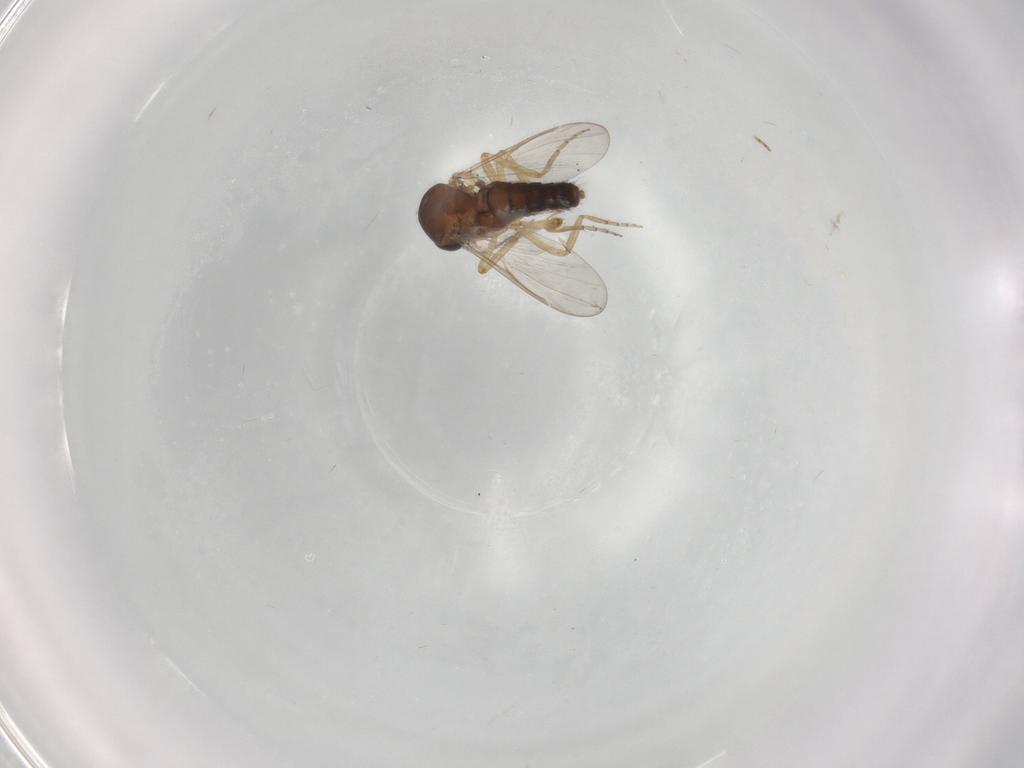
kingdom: Animalia
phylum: Arthropoda
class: Insecta
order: Diptera
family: Ceratopogonidae
